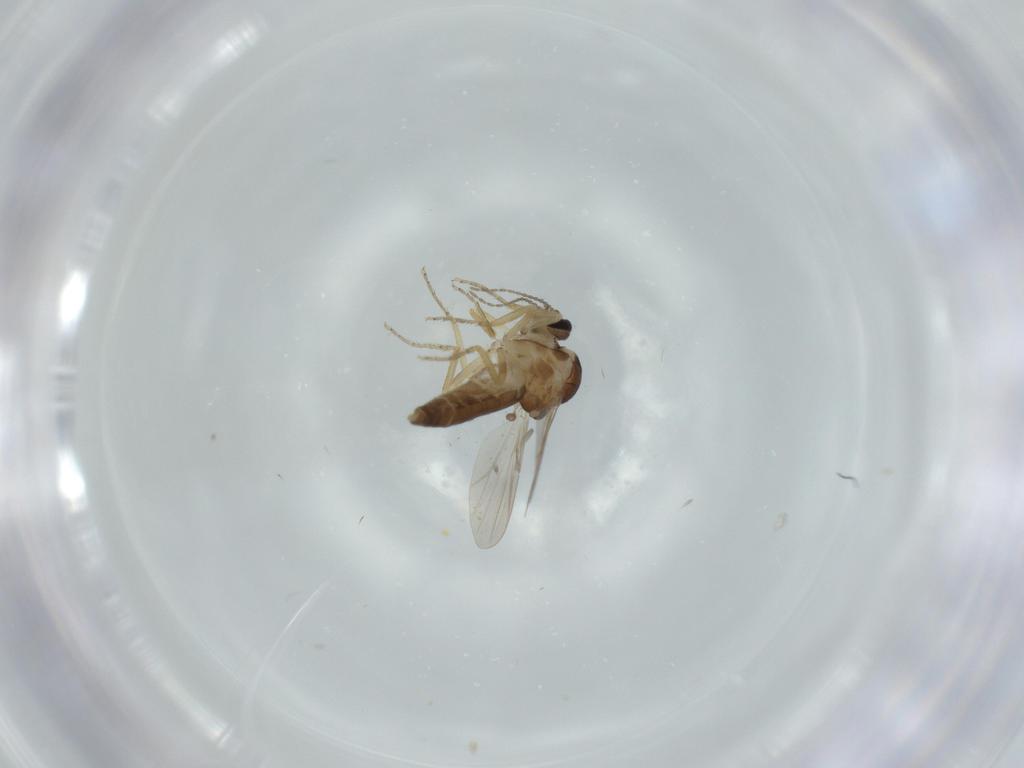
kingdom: Animalia
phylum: Arthropoda
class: Insecta
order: Diptera
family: Ceratopogonidae
